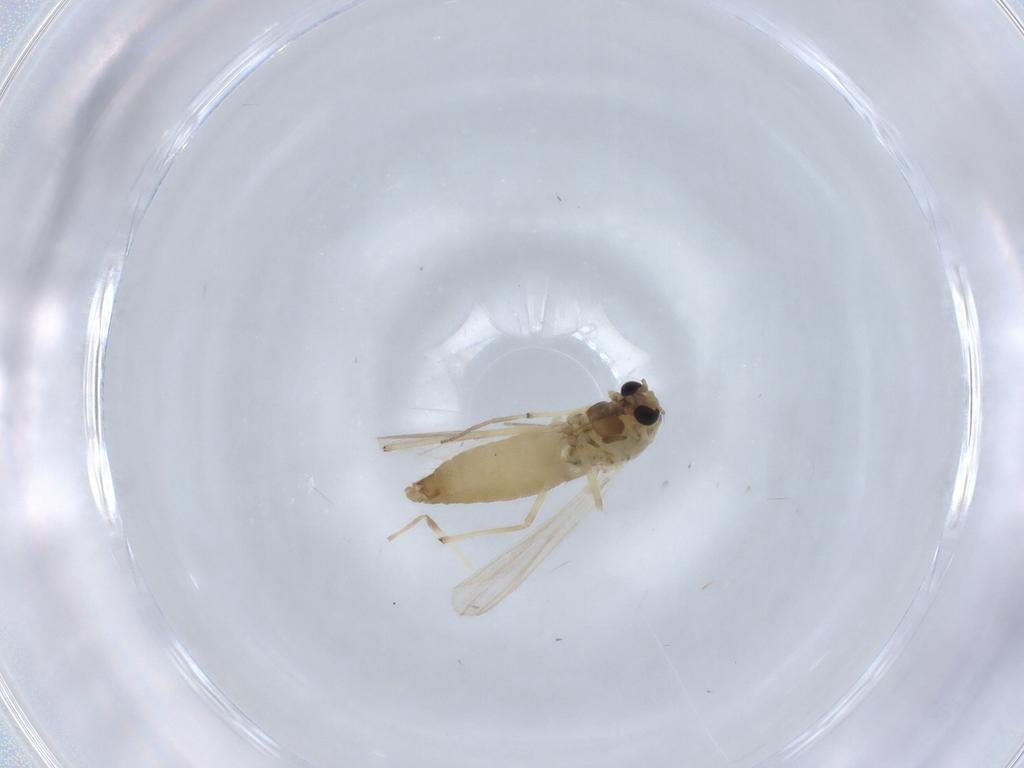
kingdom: Animalia
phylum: Arthropoda
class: Insecta
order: Diptera
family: Chironomidae
